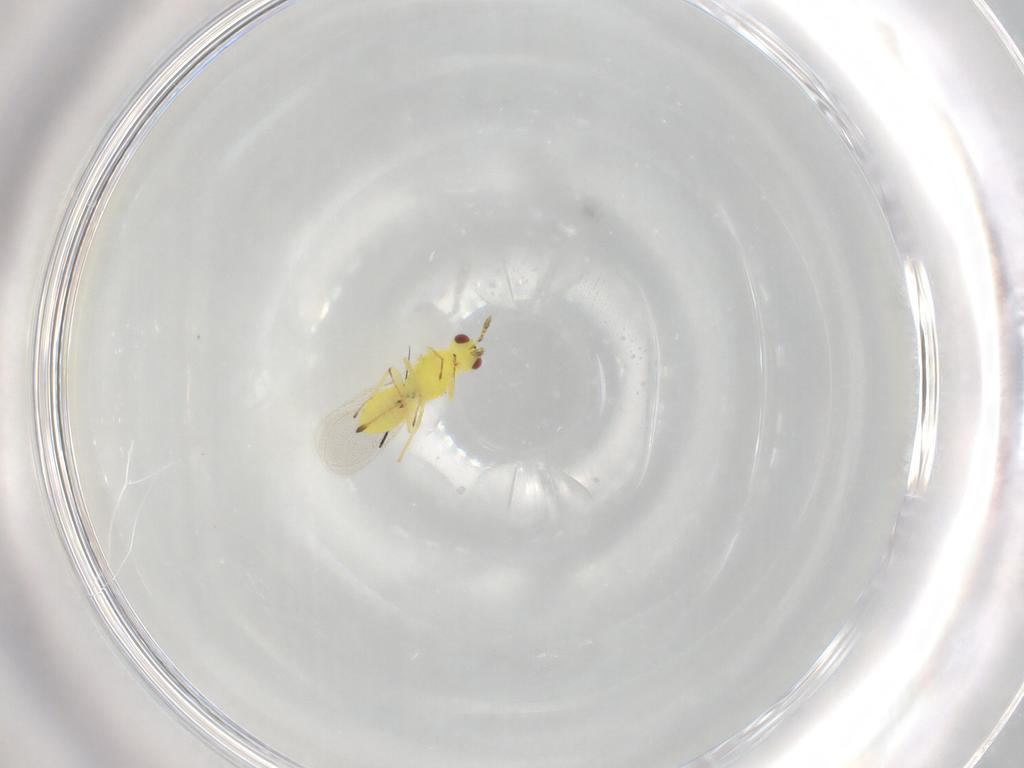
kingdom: Animalia
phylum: Arthropoda
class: Insecta
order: Hymenoptera
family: Eulophidae
